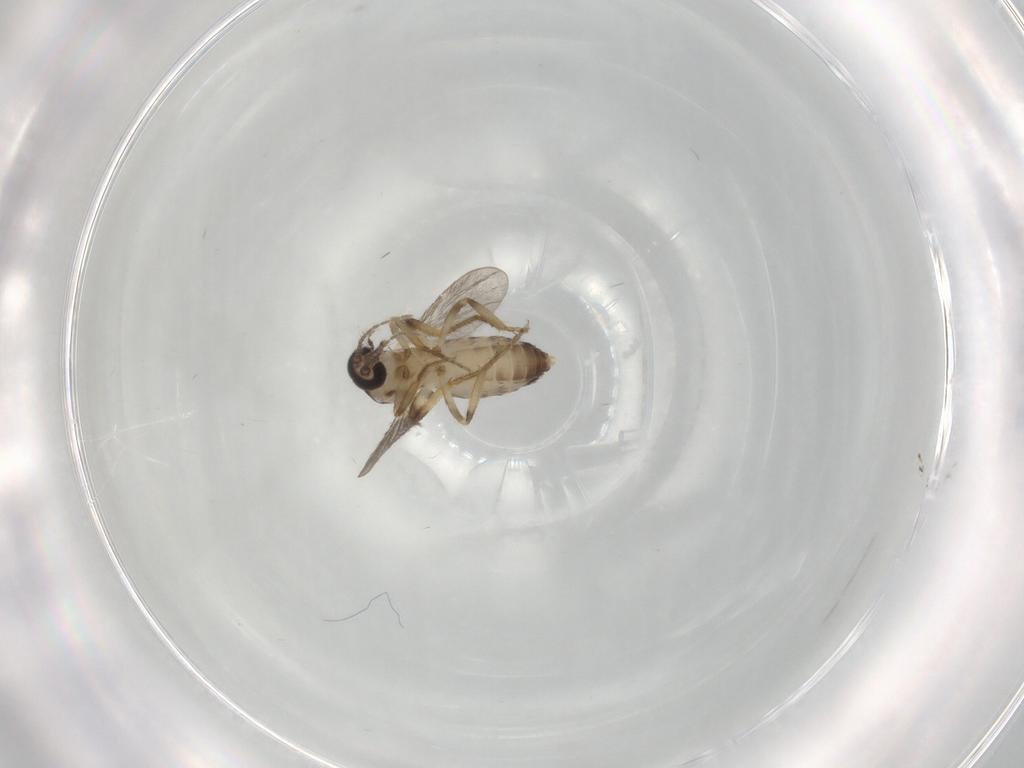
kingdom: Animalia
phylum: Arthropoda
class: Insecta
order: Diptera
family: Ceratopogonidae
